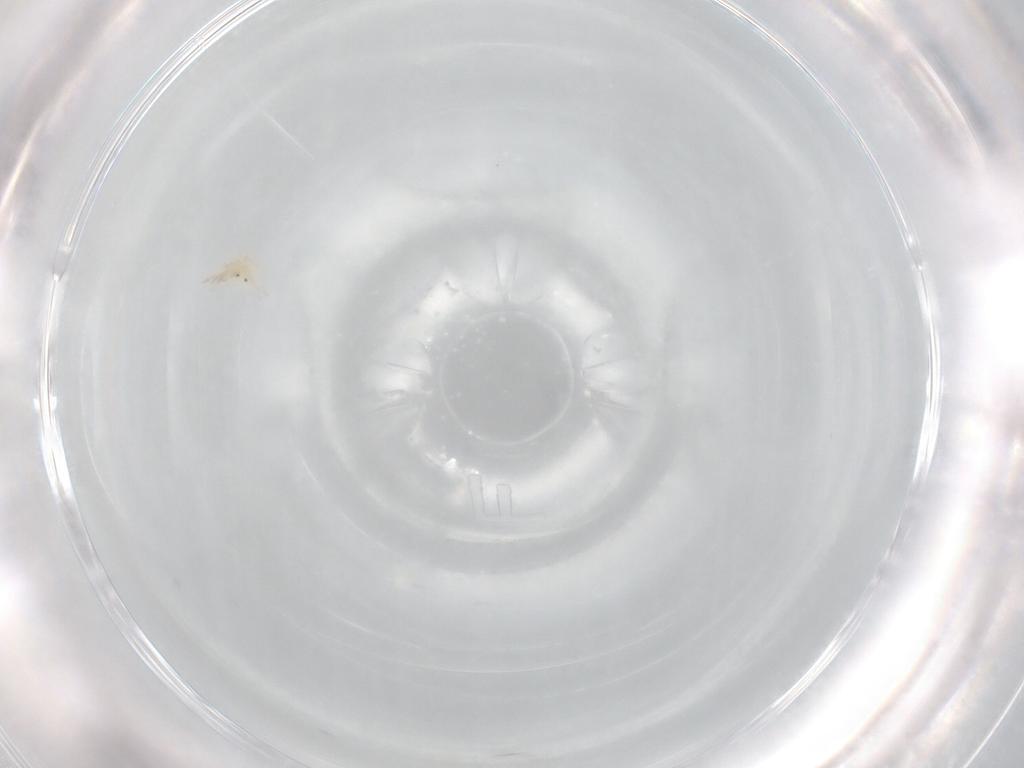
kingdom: Animalia
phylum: Arthropoda
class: Arachnida
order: Trombidiformes
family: Stigmaeidae
